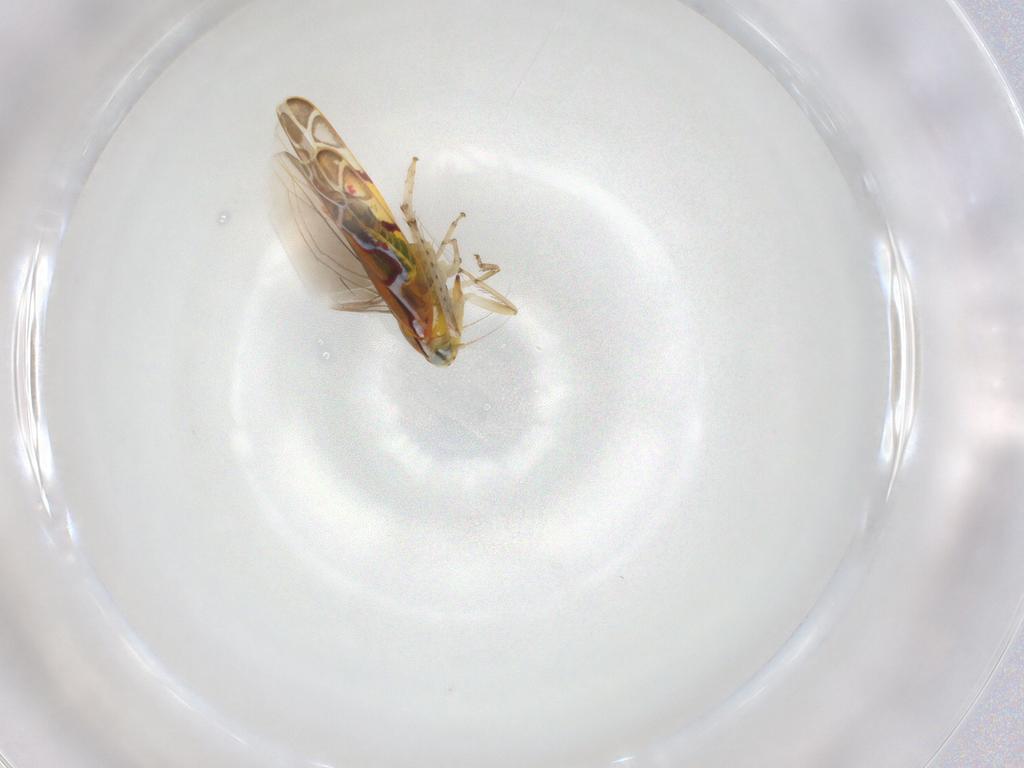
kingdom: Animalia
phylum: Arthropoda
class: Insecta
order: Hemiptera
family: Cicadellidae
